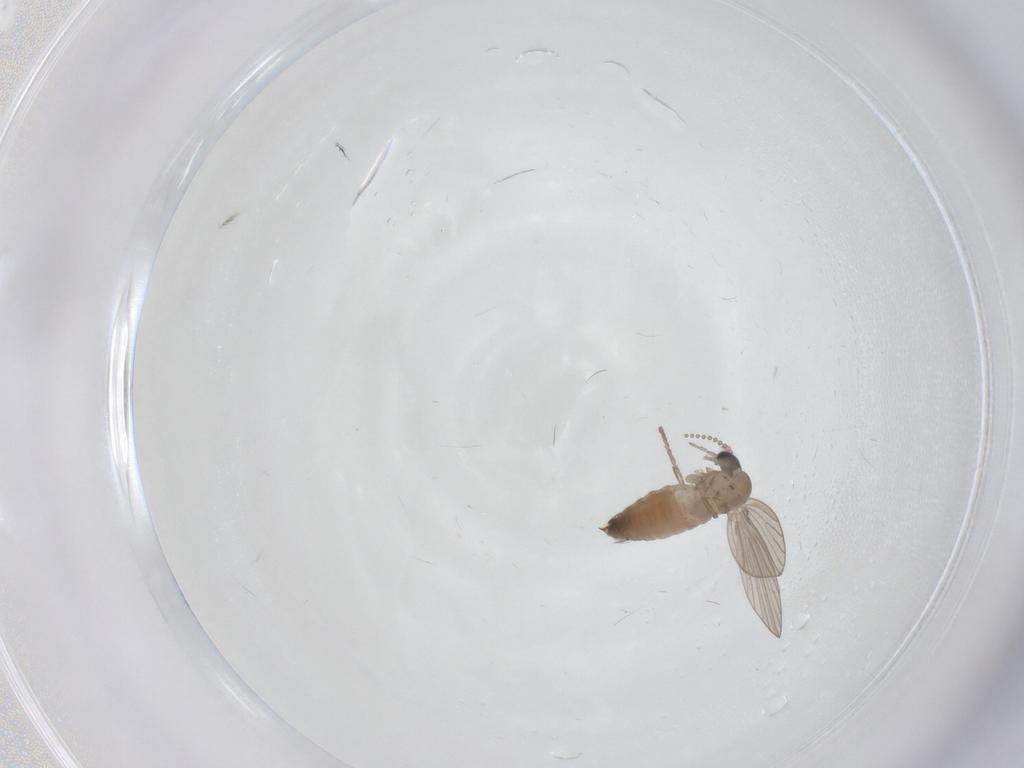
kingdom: Animalia
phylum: Arthropoda
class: Insecta
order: Diptera
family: Psychodidae
